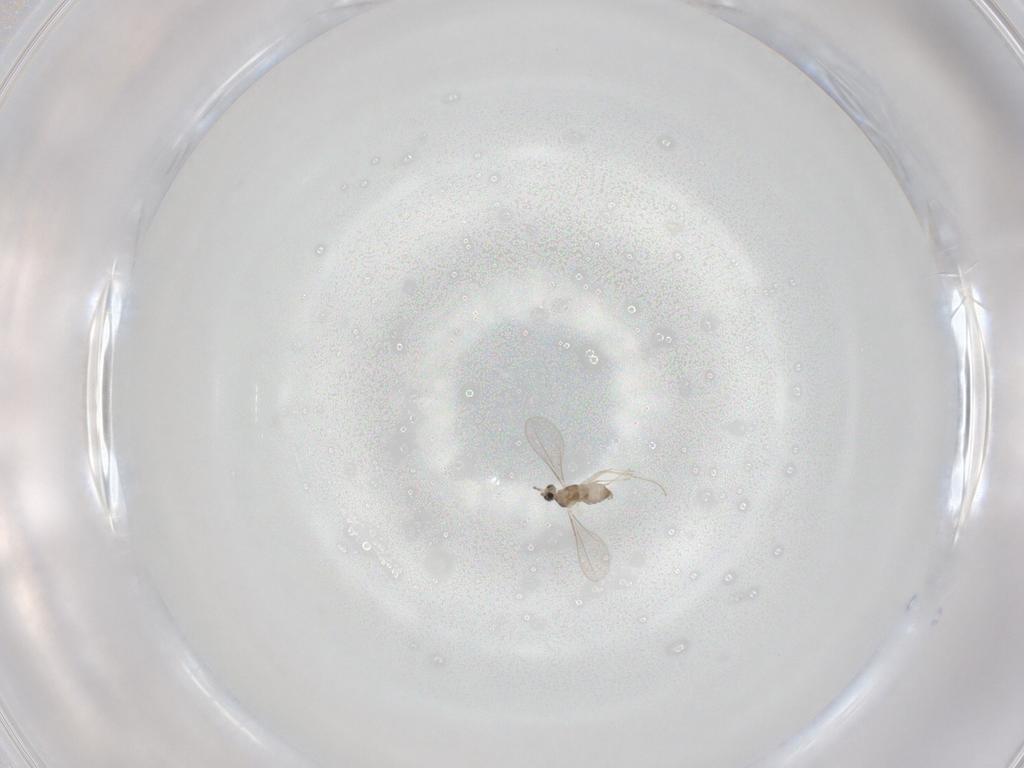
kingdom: Animalia
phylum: Arthropoda
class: Insecta
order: Diptera
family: Cecidomyiidae
